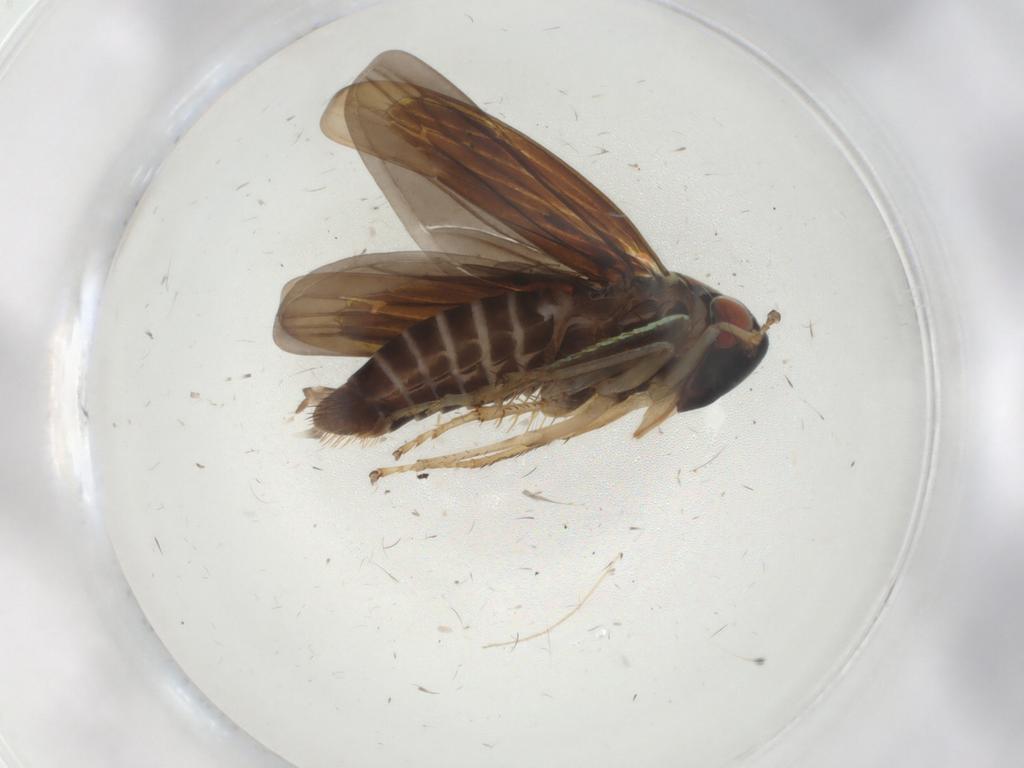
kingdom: Animalia
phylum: Arthropoda
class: Insecta
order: Hemiptera
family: Cicadellidae
